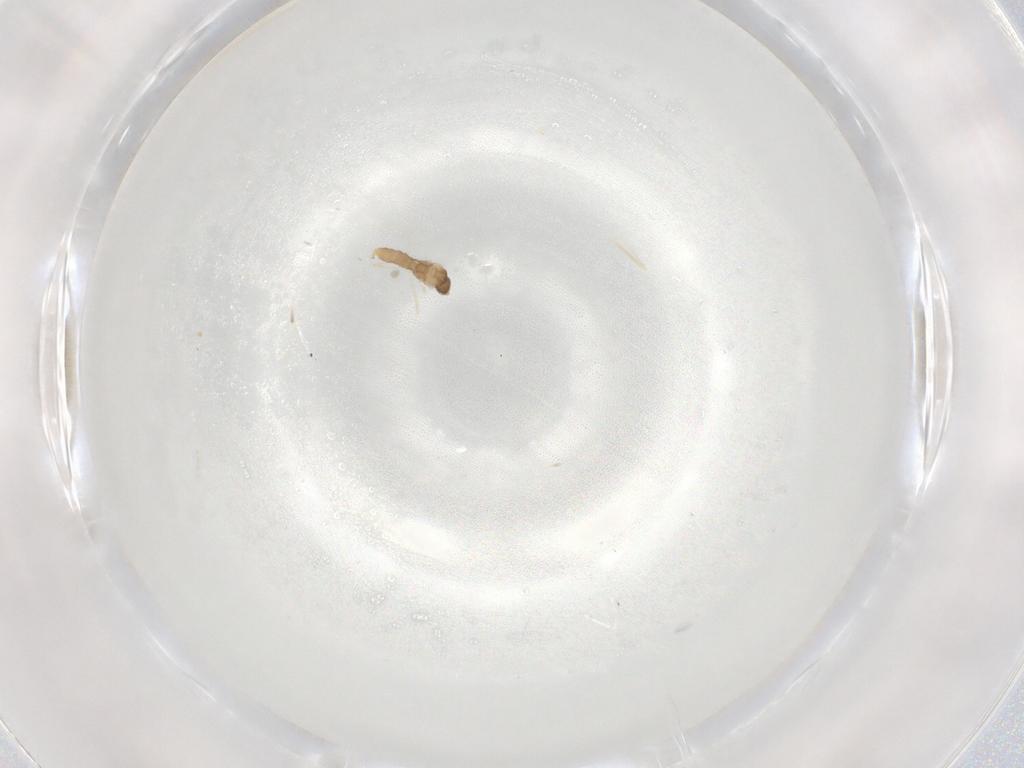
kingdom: Animalia
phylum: Arthropoda
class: Insecta
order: Diptera
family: Cecidomyiidae
